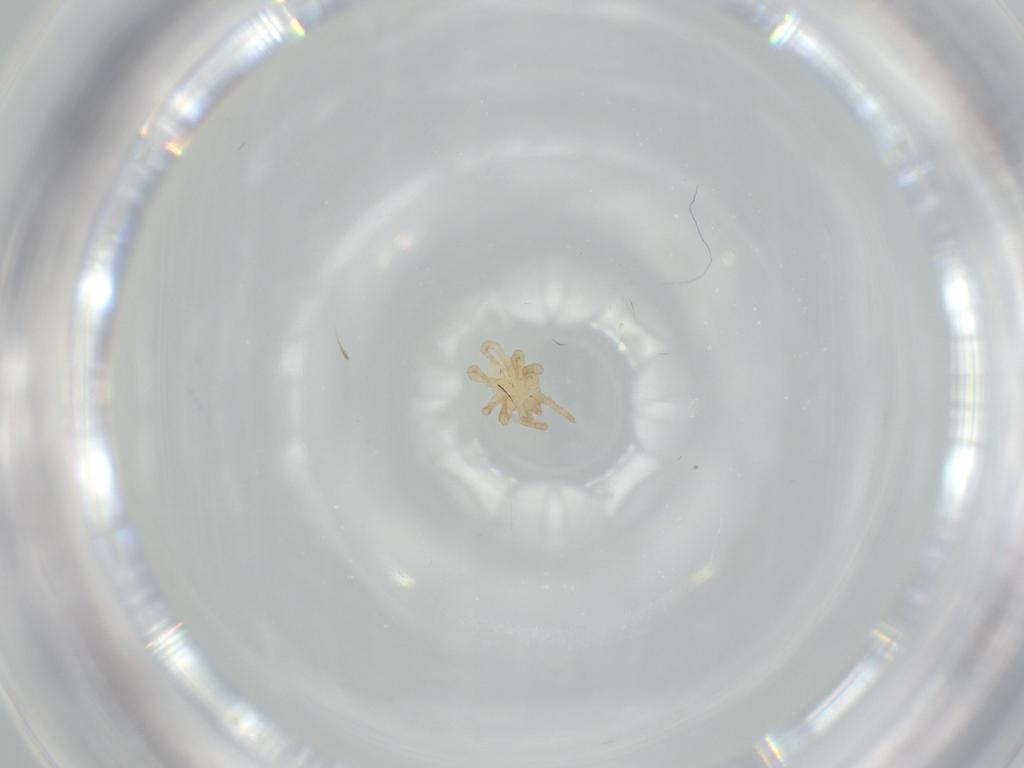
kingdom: Animalia
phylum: Arthropoda
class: Arachnida
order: Mesostigmata
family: Parasitidae
